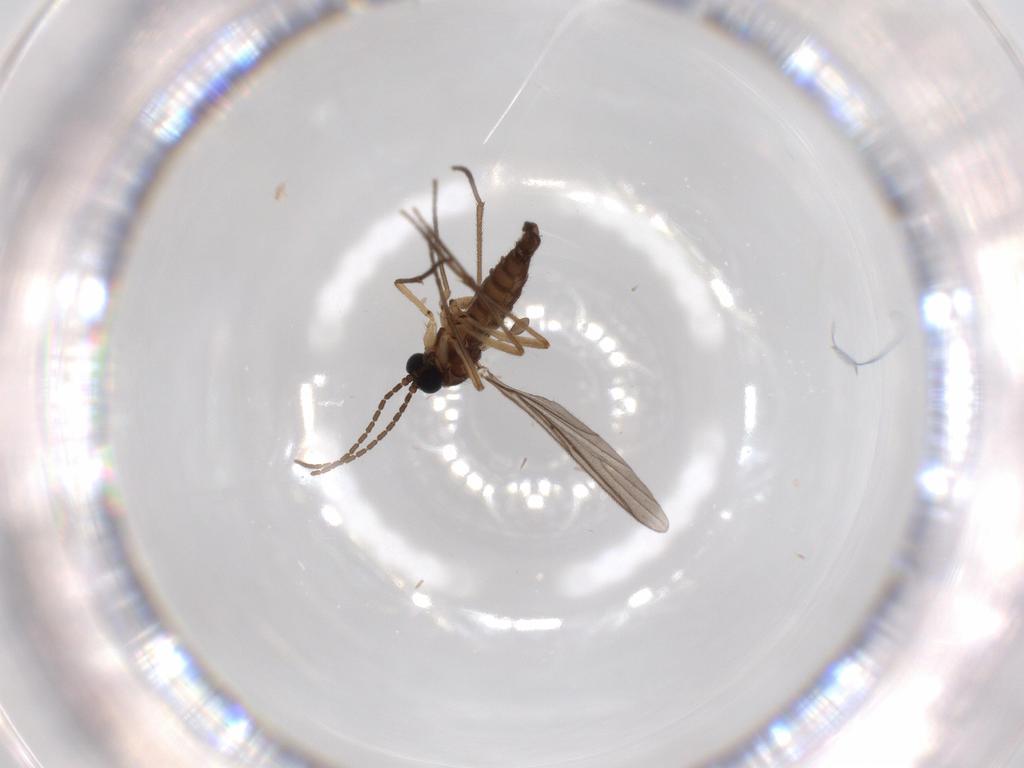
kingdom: Animalia
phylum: Arthropoda
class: Insecta
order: Diptera
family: Sciaridae
